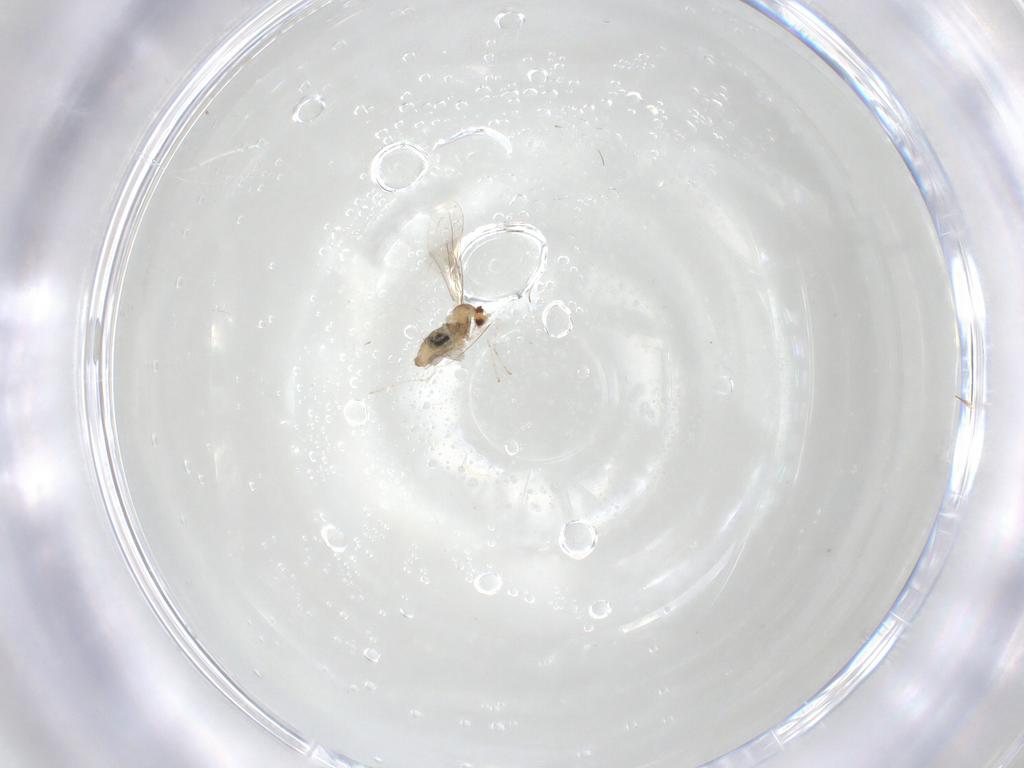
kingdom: Animalia
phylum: Arthropoda
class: Insecta
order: Diptera
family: Cecidomyiidae
